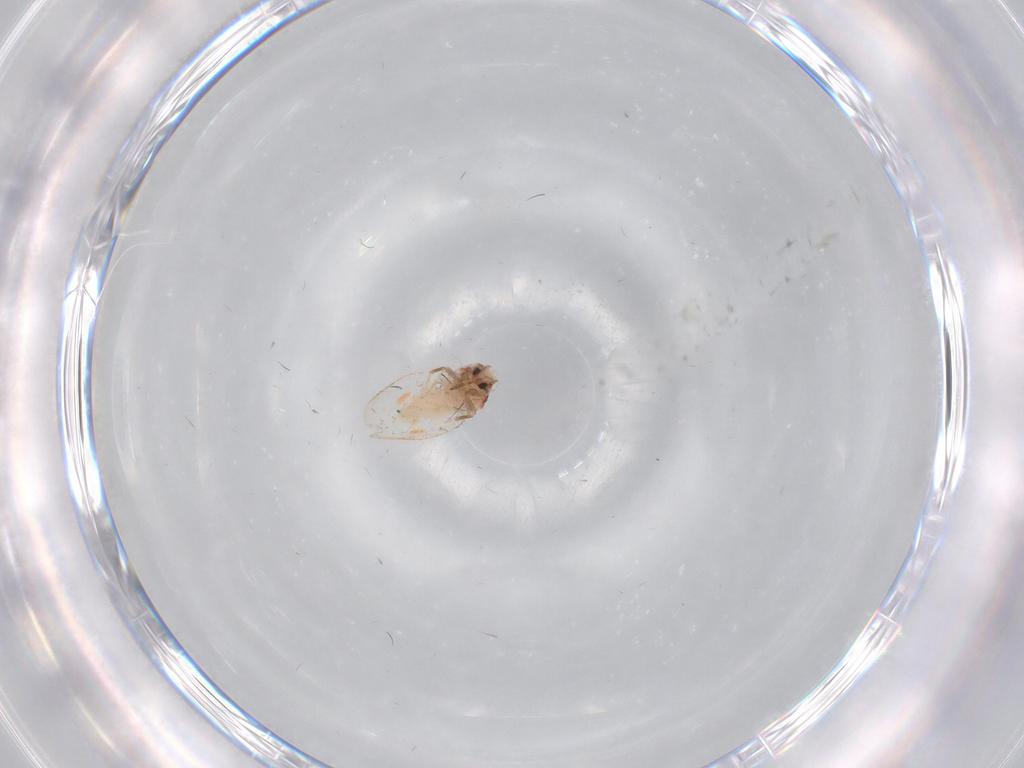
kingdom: Animalia
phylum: Arthropoda
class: Insecta
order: Hemiptera
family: Aleyrodidae
